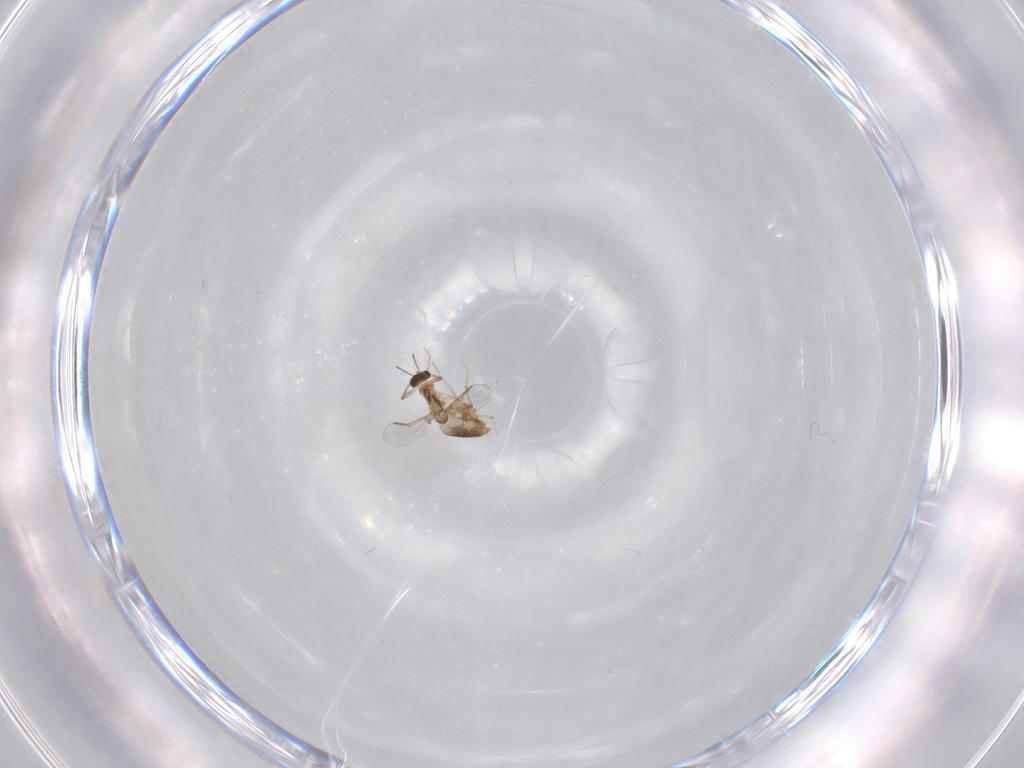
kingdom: Animalia
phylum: Arthropoda
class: Insecta
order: Diptera
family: Chironomidae
